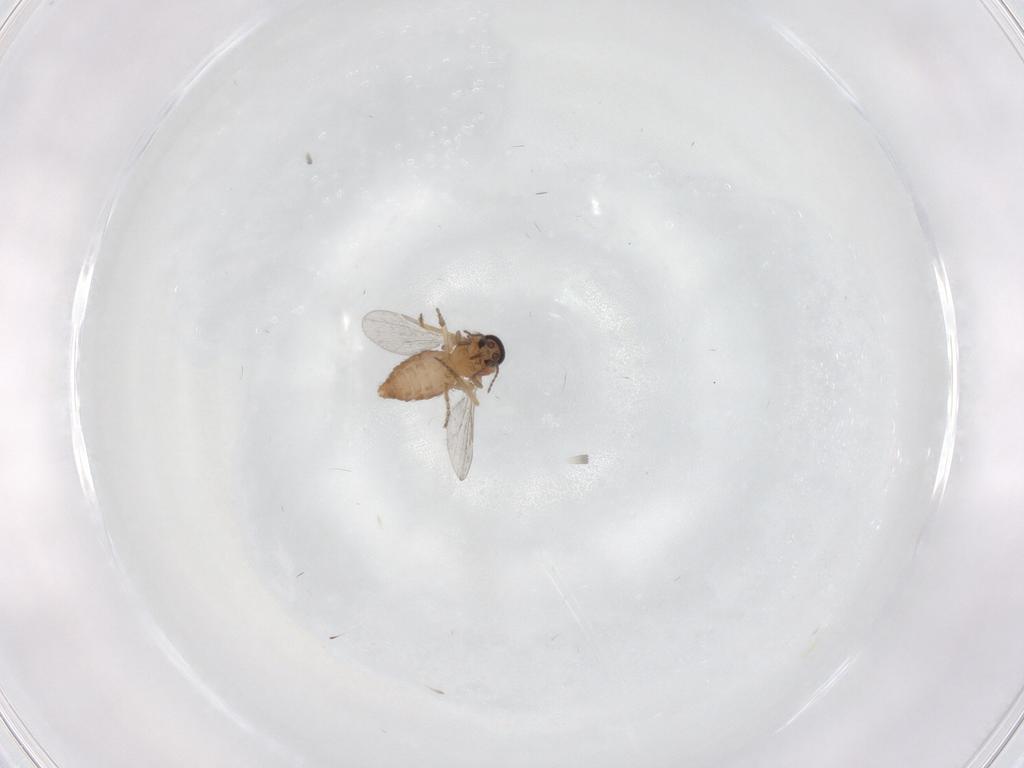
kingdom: Animalia
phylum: Arthropoda
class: Insecta
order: Diptera
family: Ceratopogonidae
